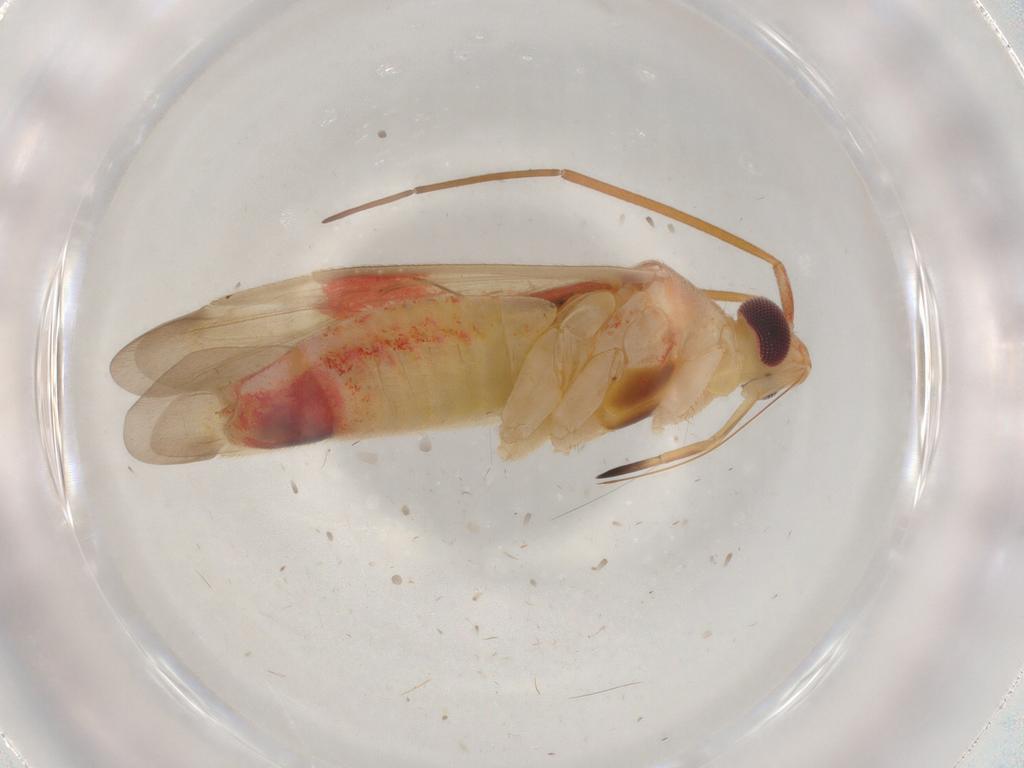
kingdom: Animalia
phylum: Arthropoda
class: Insecta
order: Hemiptera
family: Miridae
